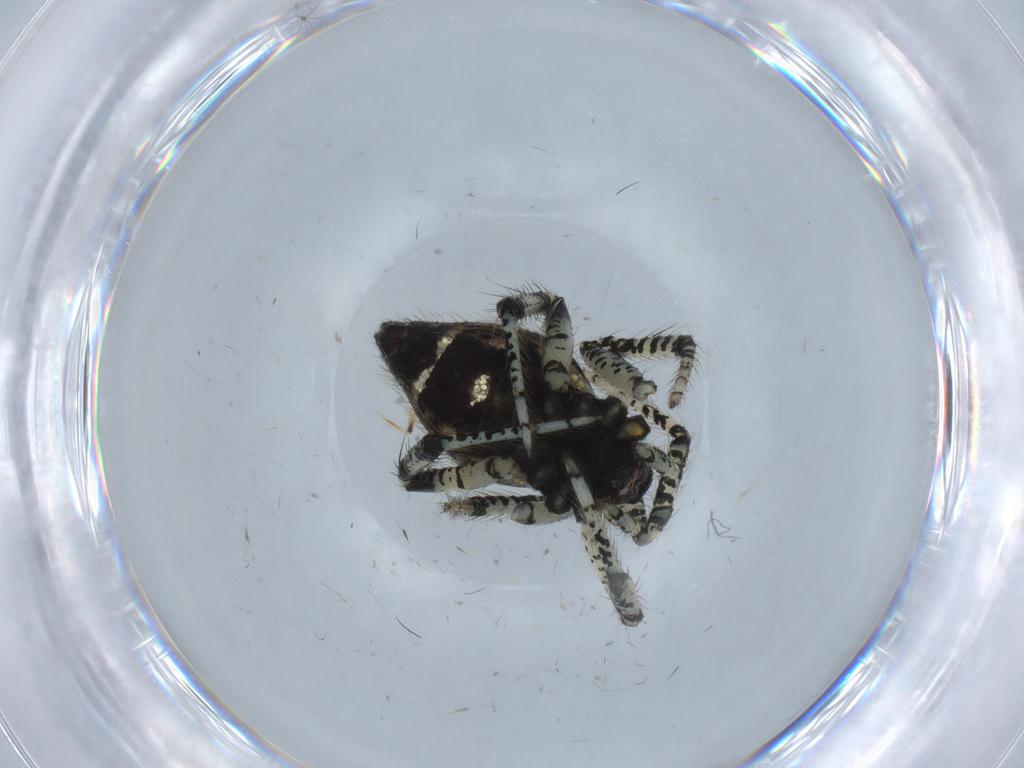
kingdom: Animalia
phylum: Arthropoda
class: Arachnida
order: Araneae
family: Theridiidae
